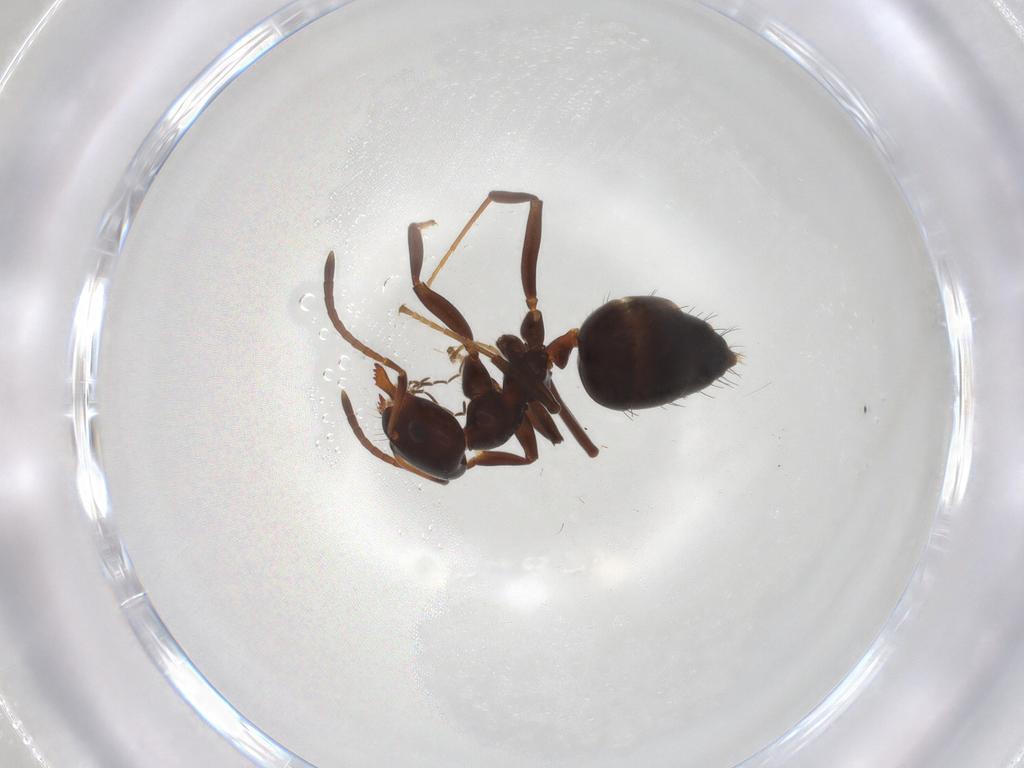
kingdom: Animalia
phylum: Arthropoda
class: Insecta
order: Hymenoptera
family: Formicidae
